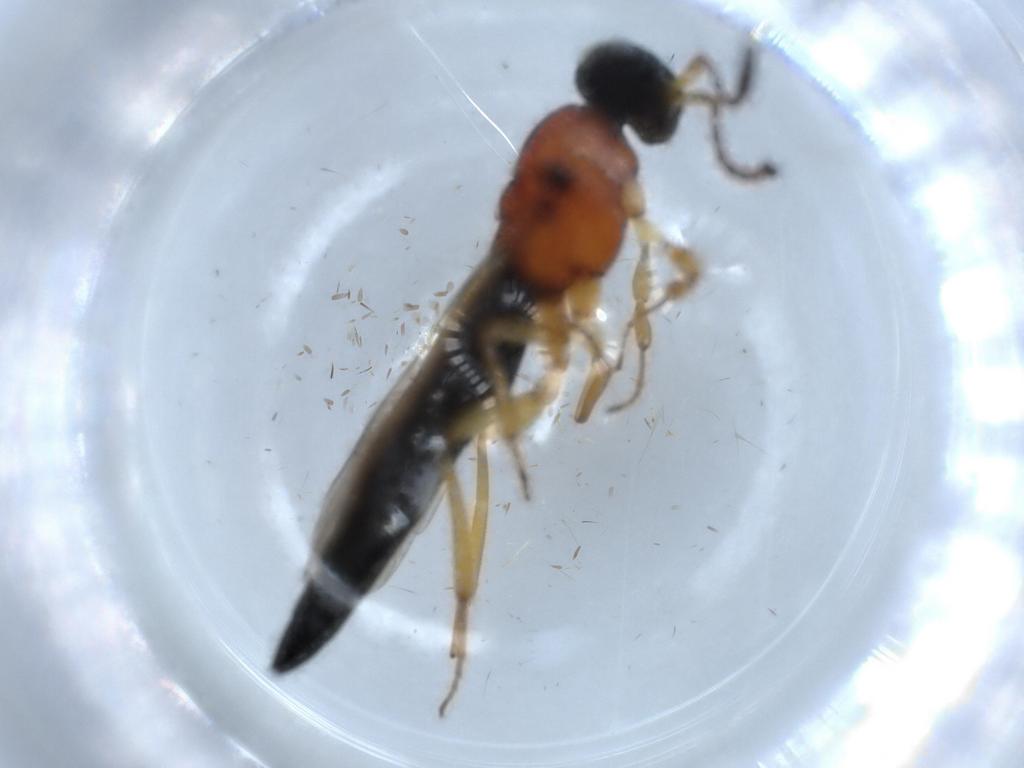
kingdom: Animalia
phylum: Arthropoda
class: Insecta
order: Hymenoptera
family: Scelionidae
